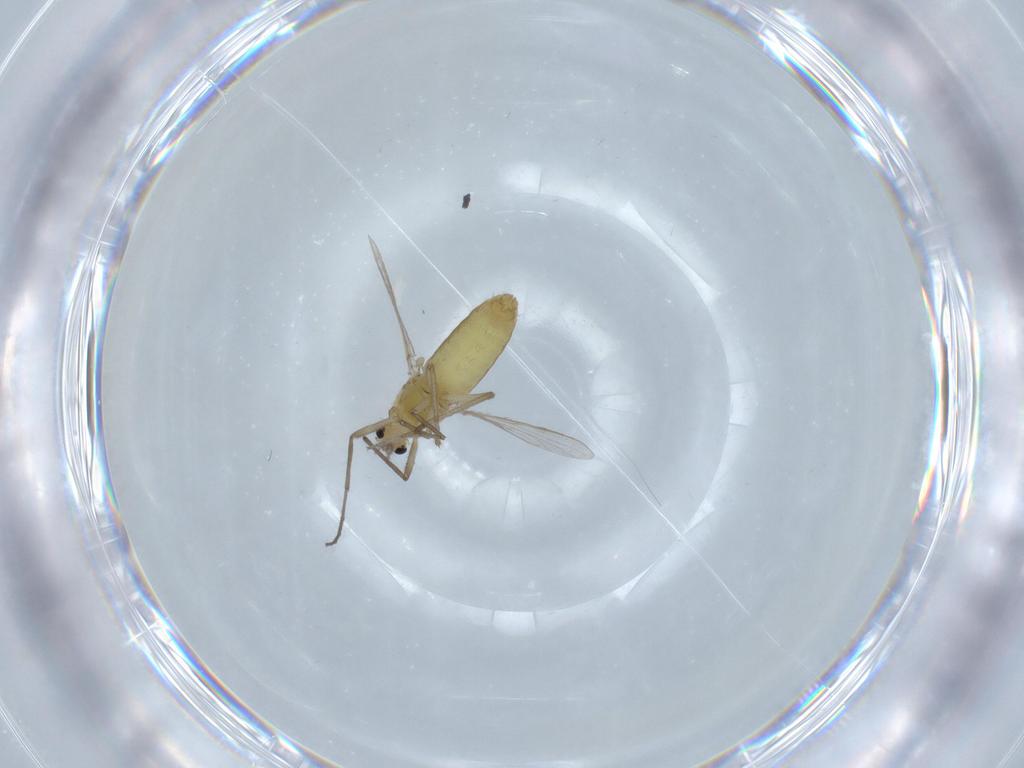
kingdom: Animalia
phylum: Arthropoda
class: Insecta
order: Diptera
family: Chironomidae
